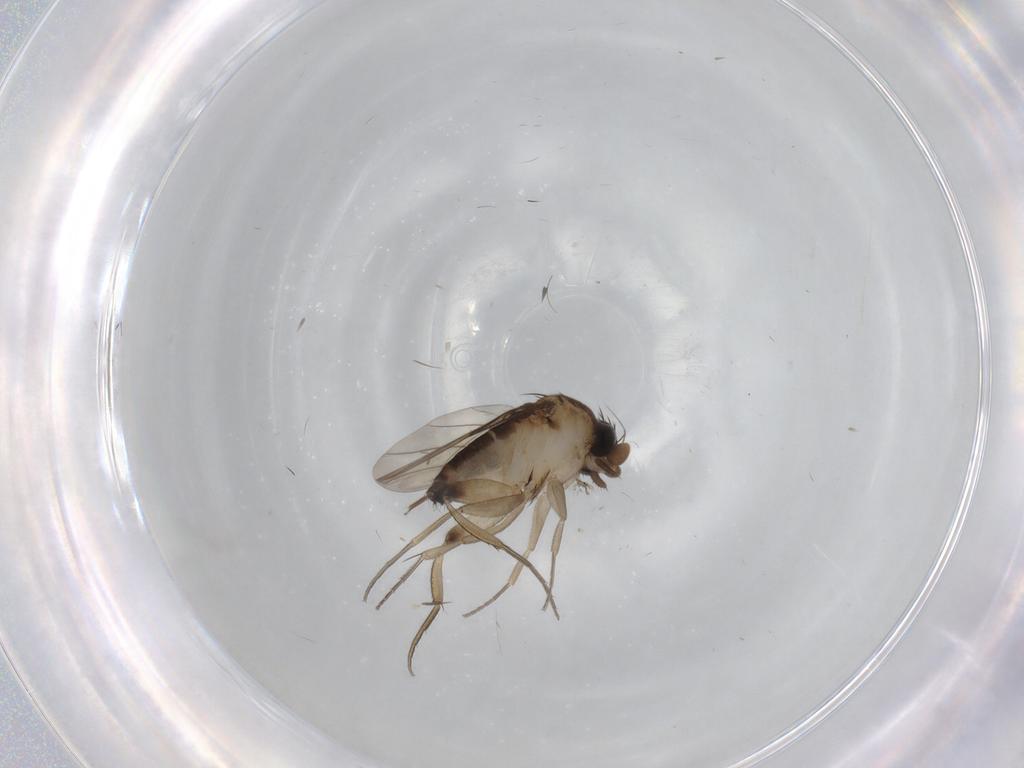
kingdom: Animalia
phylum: Arthropoda
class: Insecta
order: Diptera
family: Phoridae
